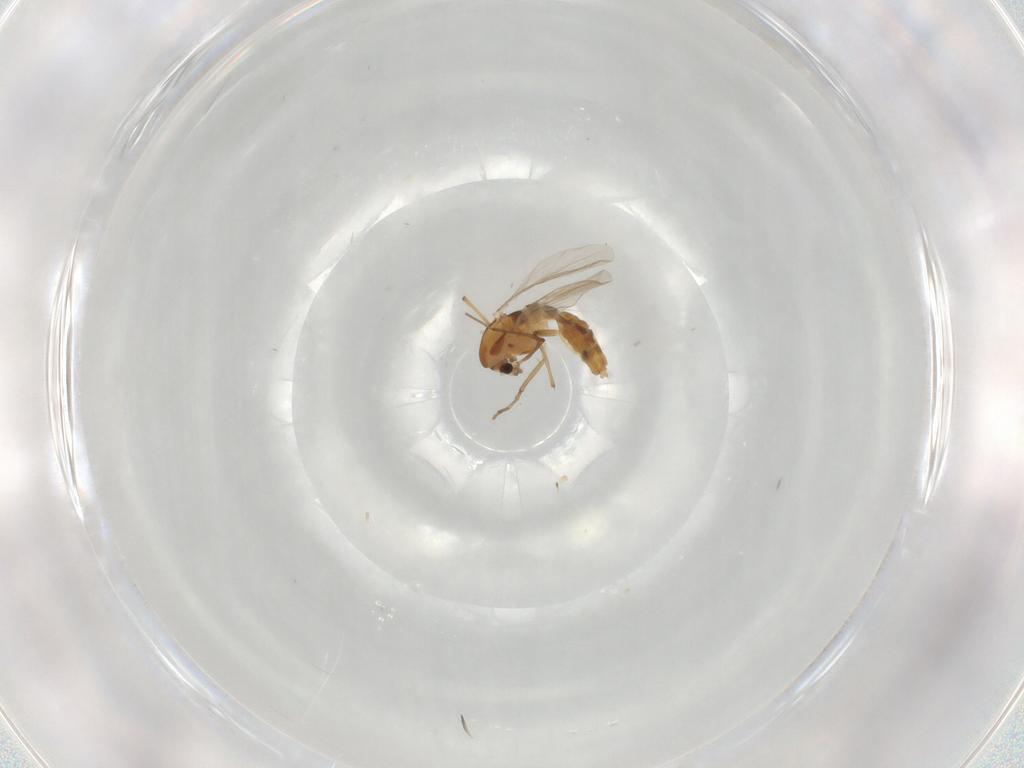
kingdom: Animalia
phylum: Arthropoda
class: Insecta
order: Diptera
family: Chironomidae
